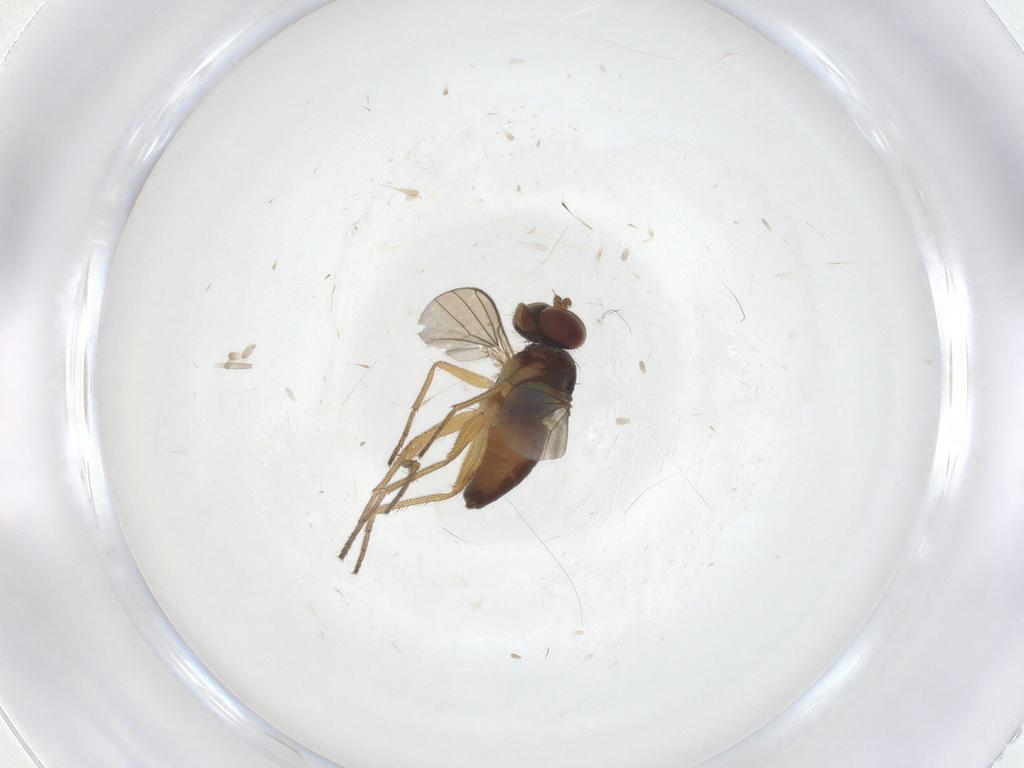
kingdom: Animalia
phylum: Arthropoda
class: Insecta
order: Diptera
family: Dolichopodidae
